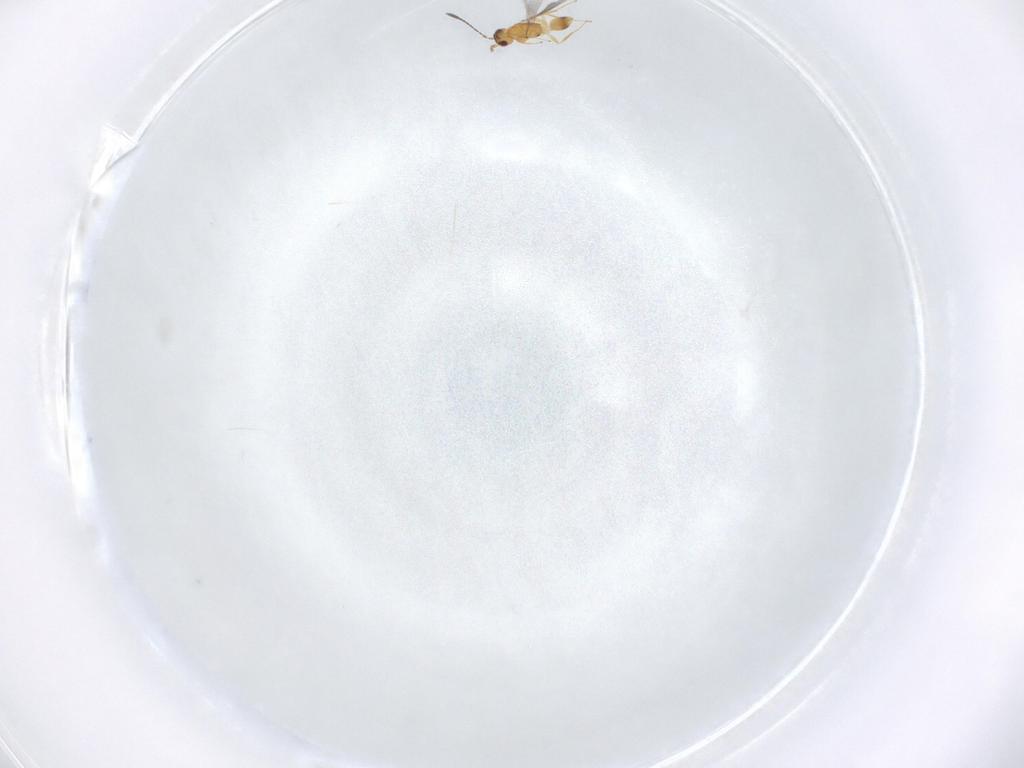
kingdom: Animalia
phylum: Arthropoda
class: Insecta
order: Hymenoptera
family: Mymaridae
